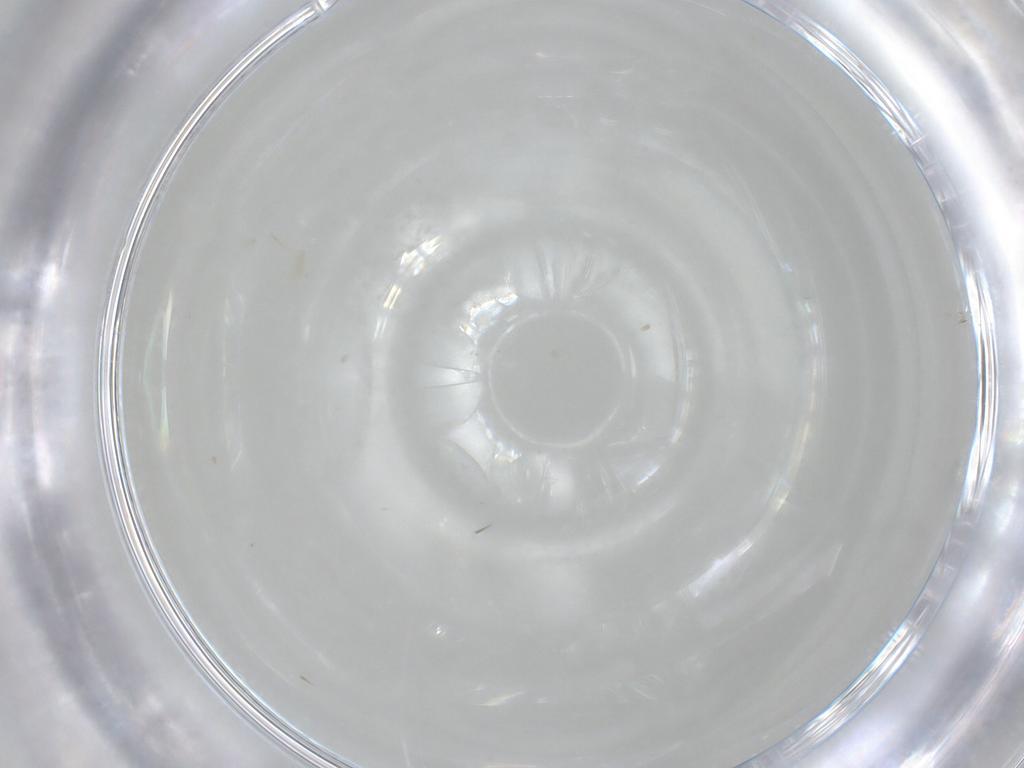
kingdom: Animalia
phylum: Arthropoda
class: Insecta
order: Diptera
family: Ceratopogonidae
